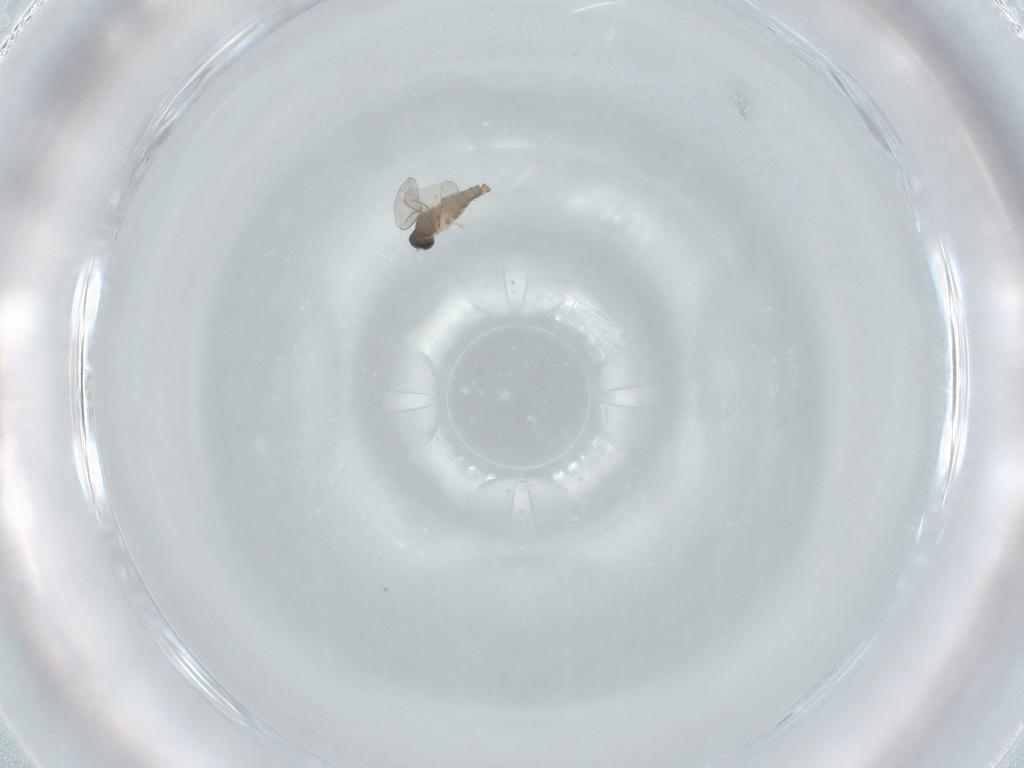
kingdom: Animalia
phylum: Arthropoda
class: Insecta
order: Diptera
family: Cecidomyiidae
